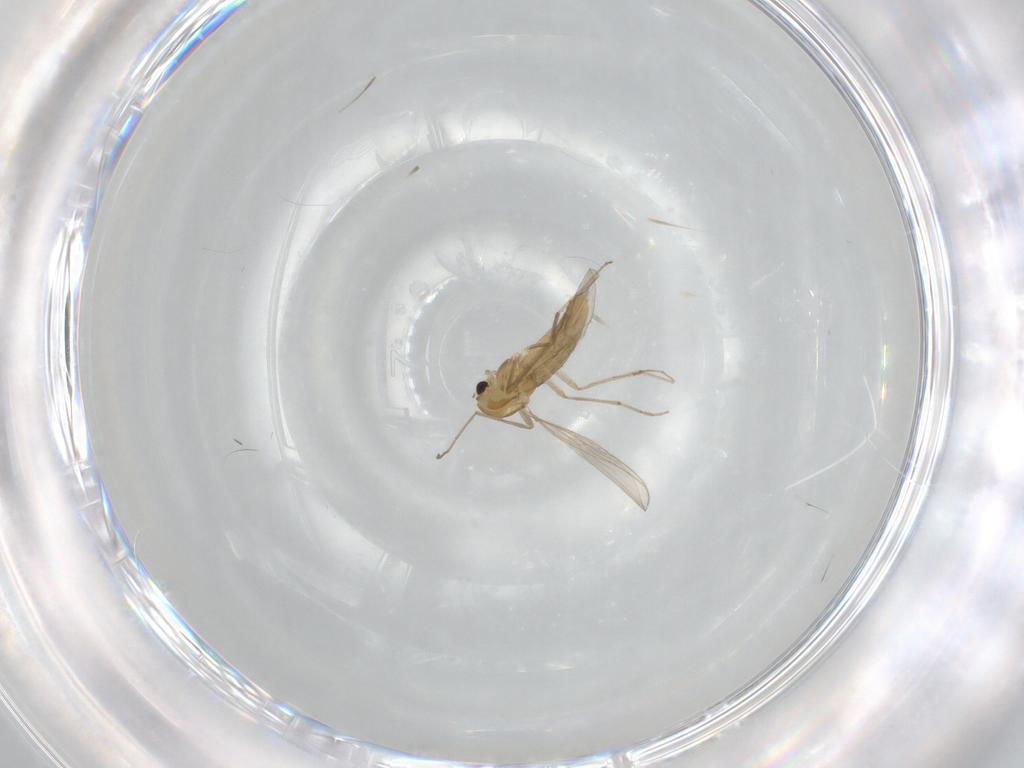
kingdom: Animalia
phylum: Arthropoda
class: Insecta
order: Diptera
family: Chironomidae
